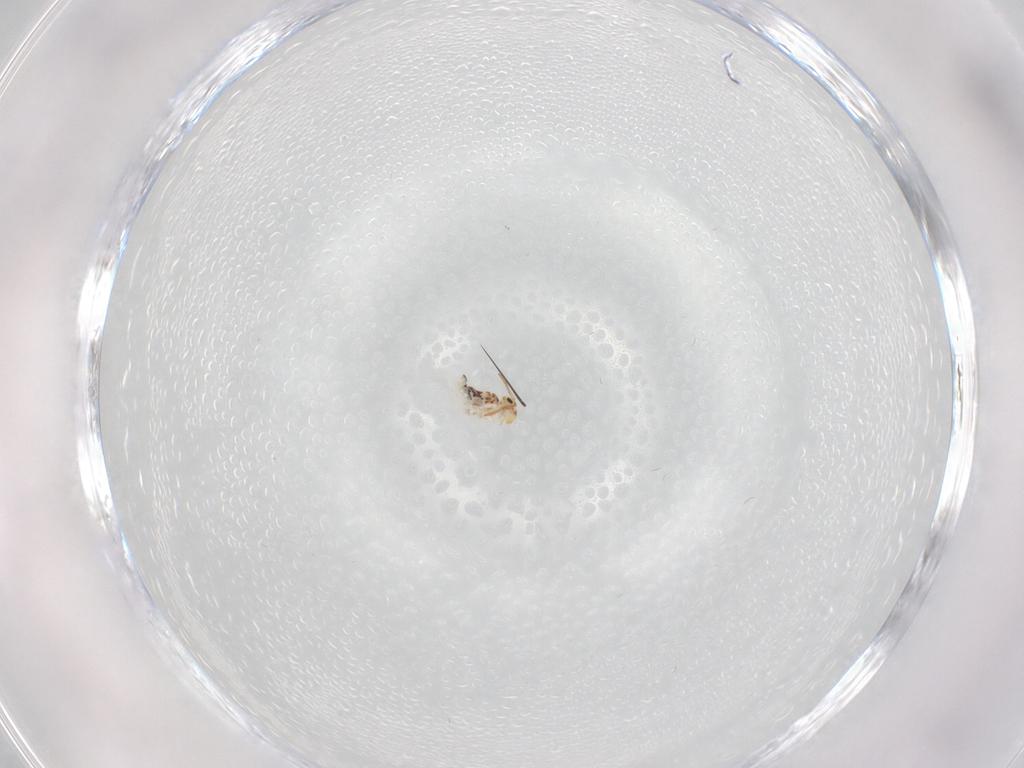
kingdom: Animalia
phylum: Arthropoda
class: Collembola
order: Symphypleona
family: Bourletiellidae
